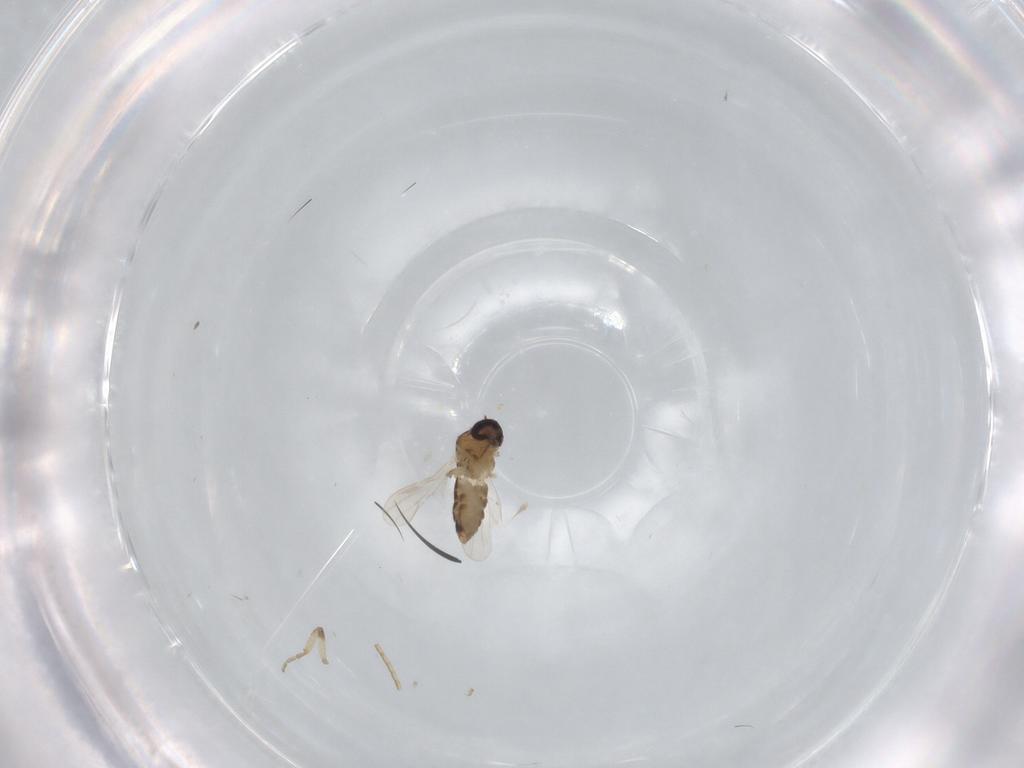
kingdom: Animalia
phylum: Arthropoda
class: Insecta
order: Diptera
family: Ceratopogonidae
